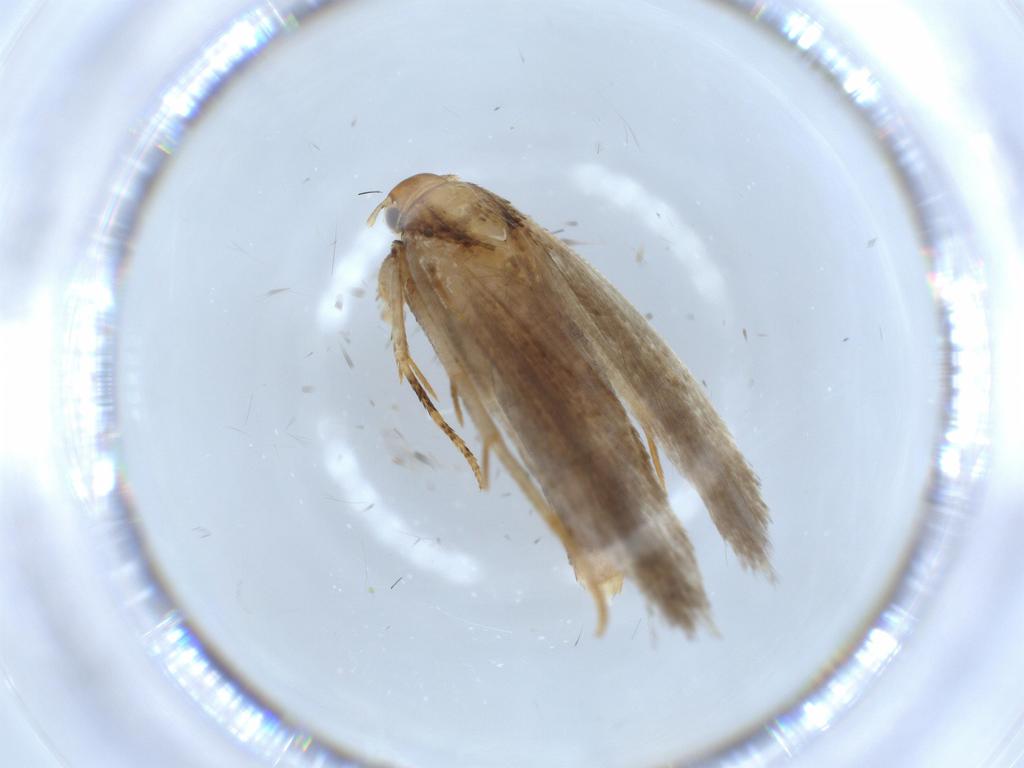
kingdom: Animalia
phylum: Arthropoda
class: Insecta
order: Lepidoptera
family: Gelechiidae
